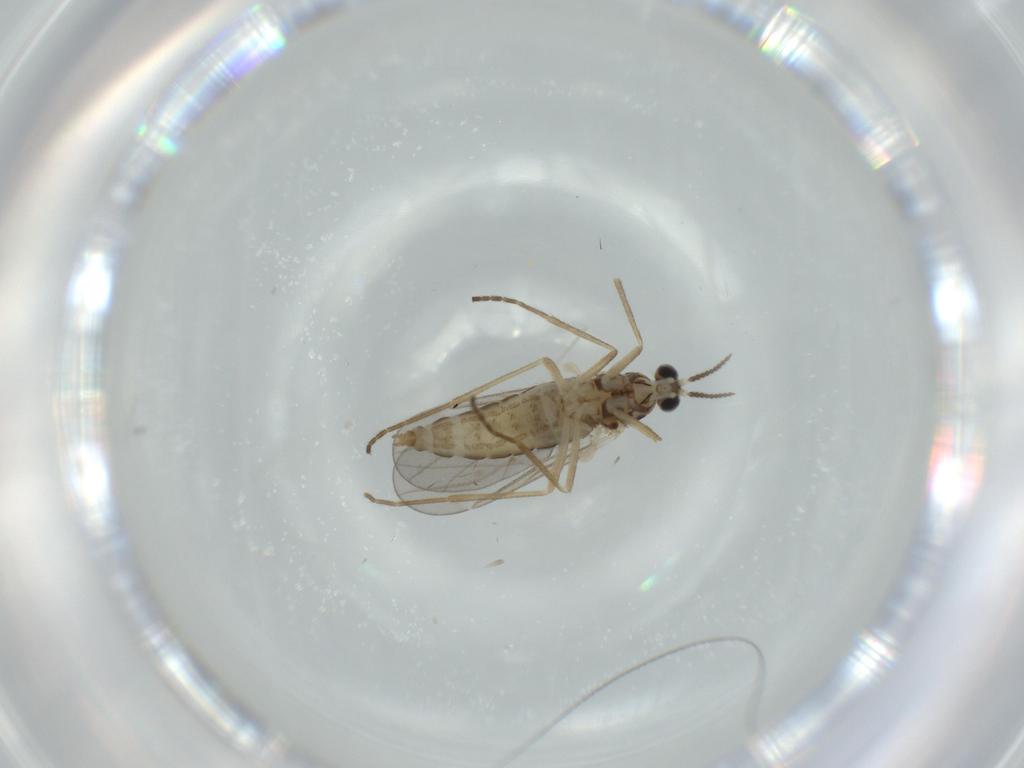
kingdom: Animalia
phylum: Arthropoda
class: Insecta
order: Diptera
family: Cecidomyiidae
